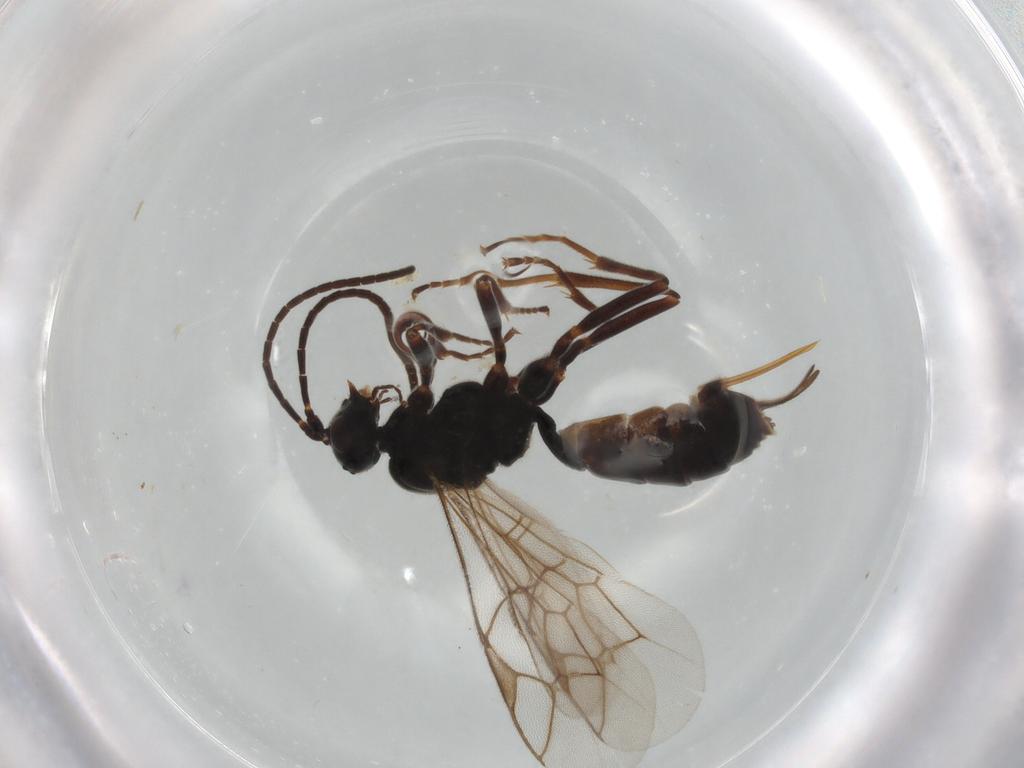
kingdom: Animalia
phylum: Arthropoda
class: Insecta
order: Hymenoptera
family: Ichneumonidae
